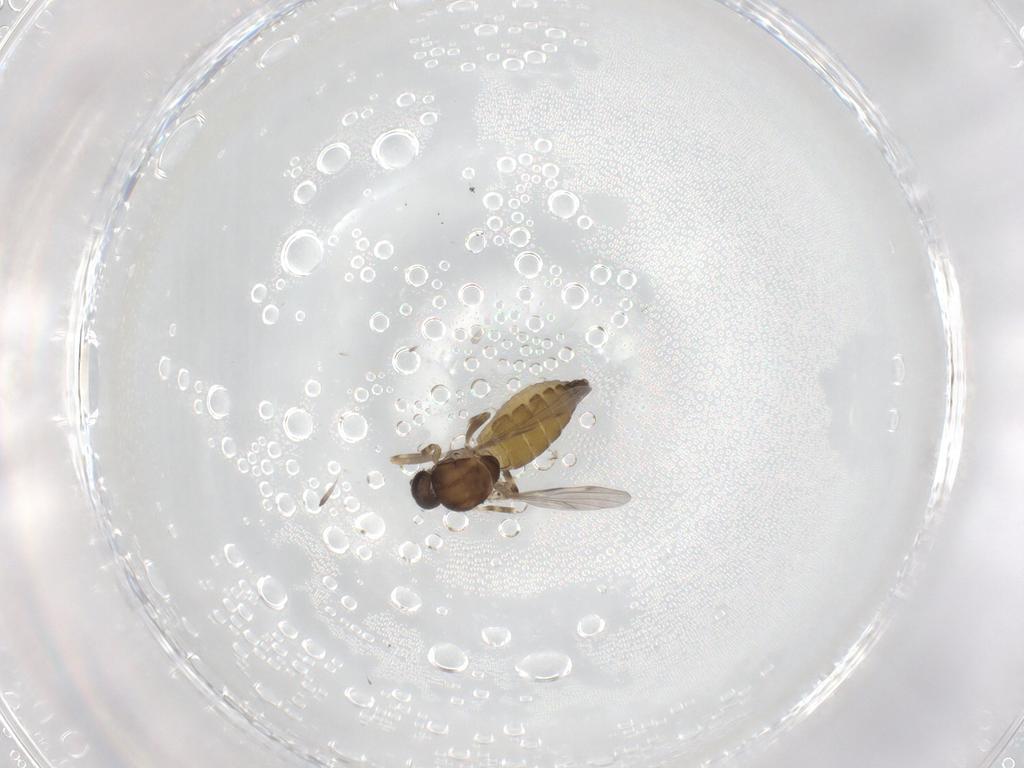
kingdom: Animalia
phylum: Arthropoda
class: Insecta
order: Diptera
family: Ceratopogonidae
